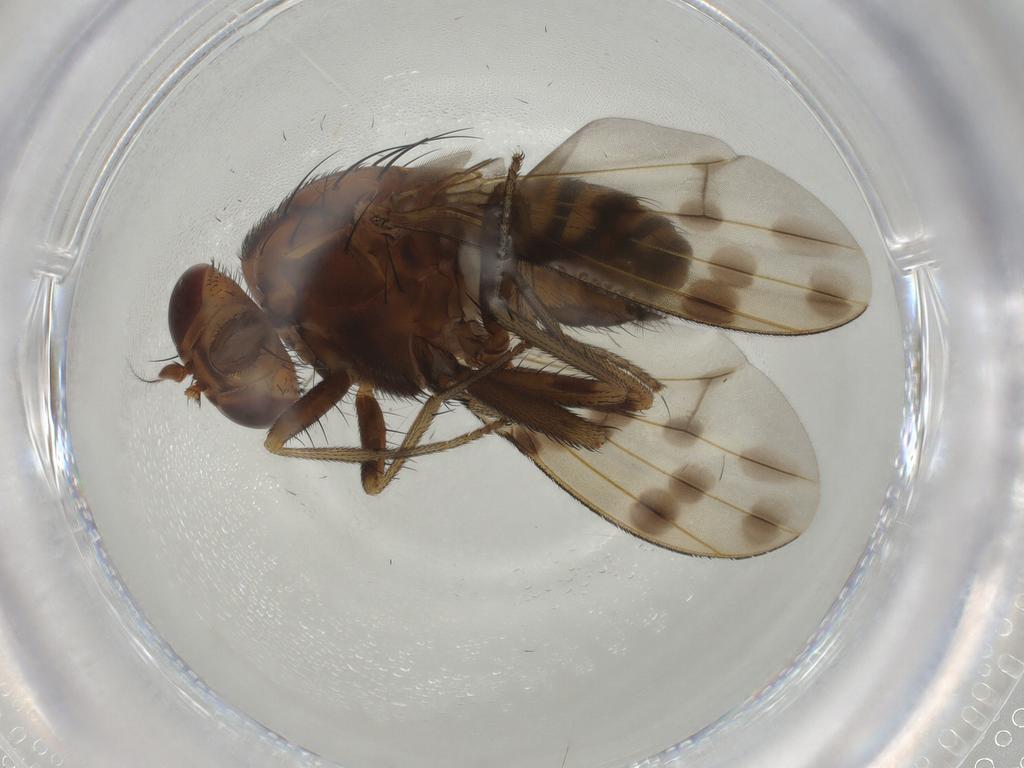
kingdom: Animalia
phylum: Arthropoda
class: Insecta
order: Diptera
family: Lauxaniidae
